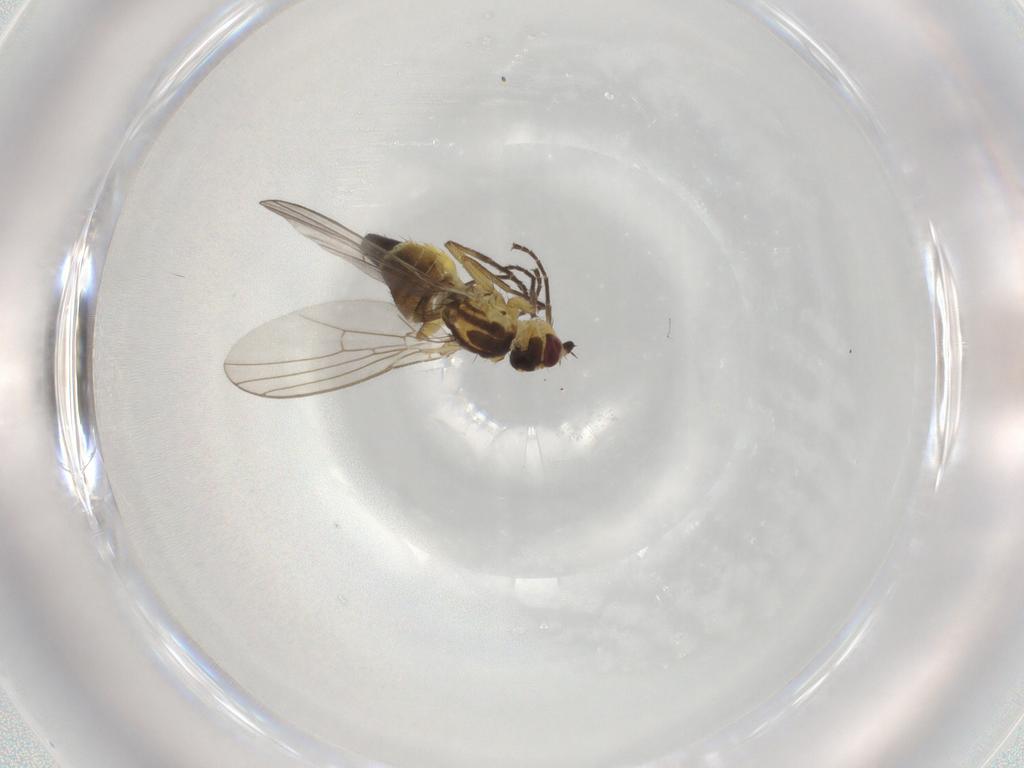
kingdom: Animalia
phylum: Arthropoda
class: Insecta
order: Diptera
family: Agromyzidae
